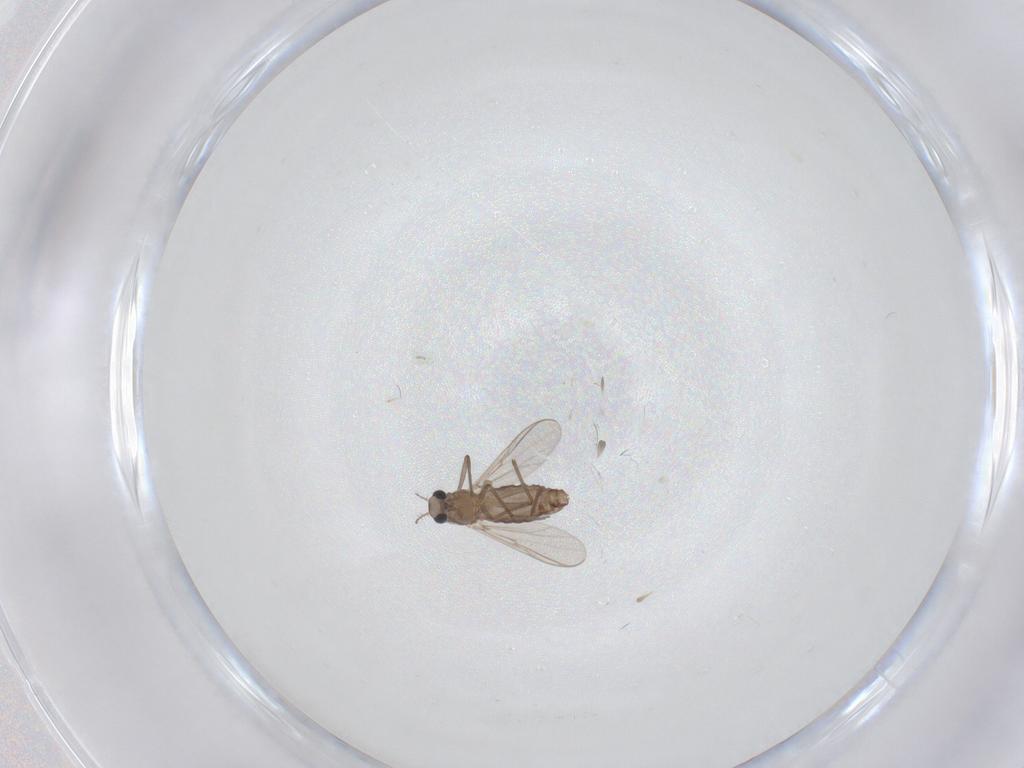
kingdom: Animalia
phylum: Arthropoda
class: Insecta
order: Diptera
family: Chironomidae
